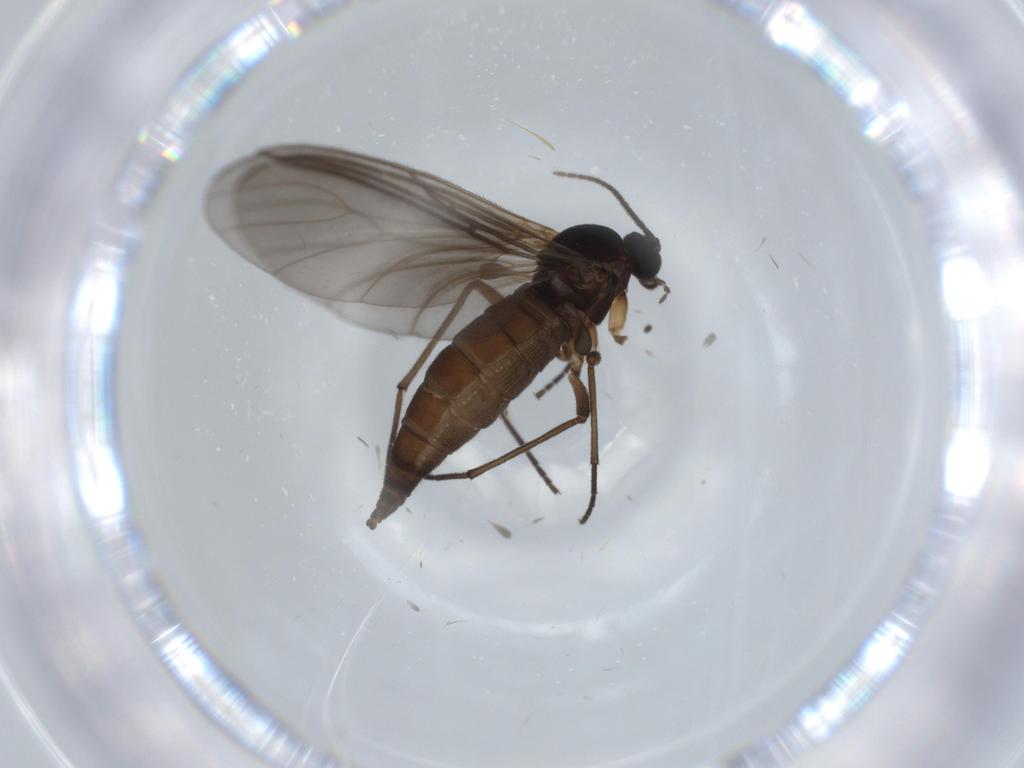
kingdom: Animalia
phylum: Arthropoda
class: Insecta
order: Diptera
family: Sciaridae
